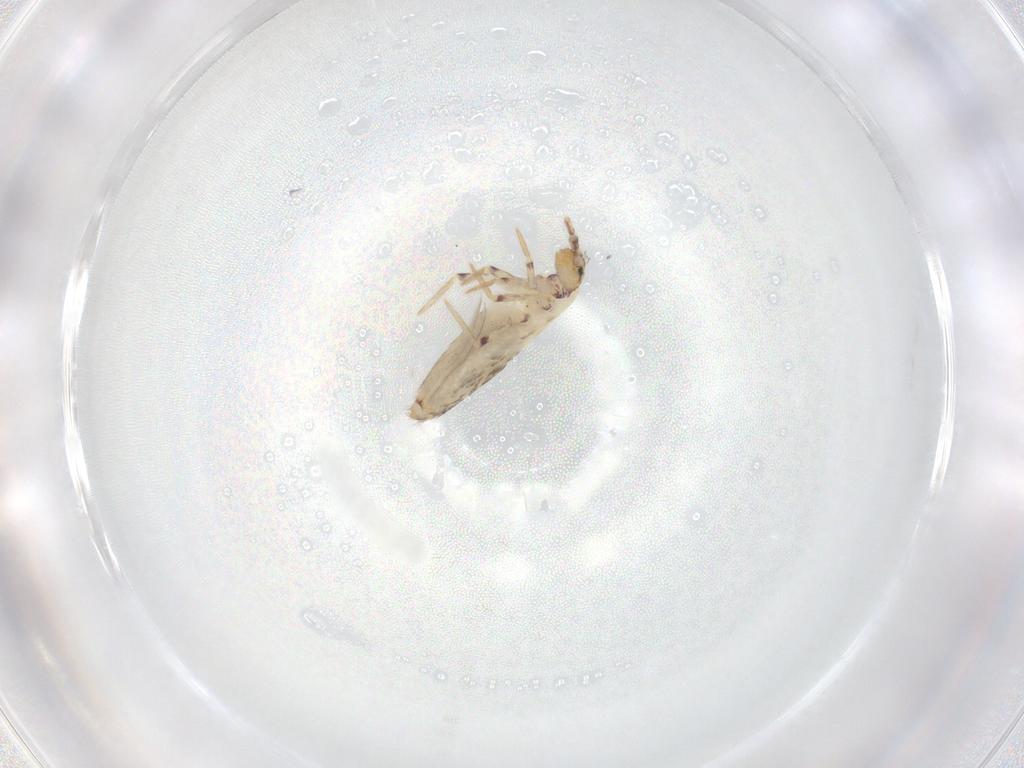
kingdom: Animalia
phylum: Arthropoda
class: Collembola
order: Entomobryomorpha
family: Entomobryidae
